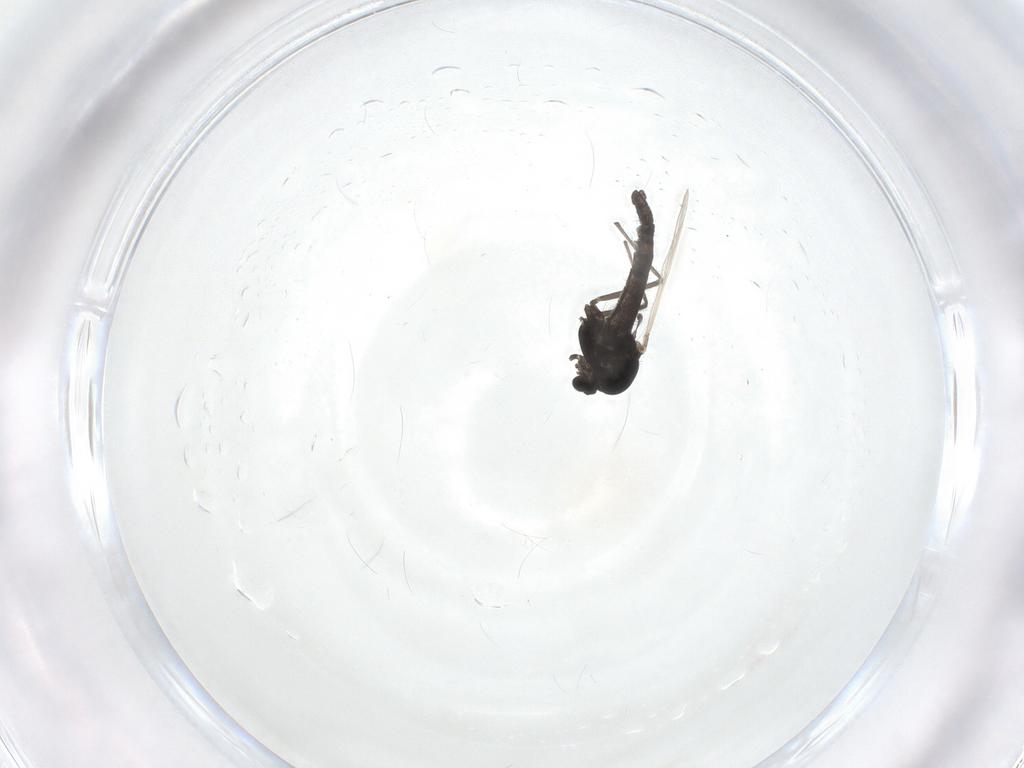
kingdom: Animalia
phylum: Arthropoda
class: Insecta
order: Diptera
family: Chironomidae
